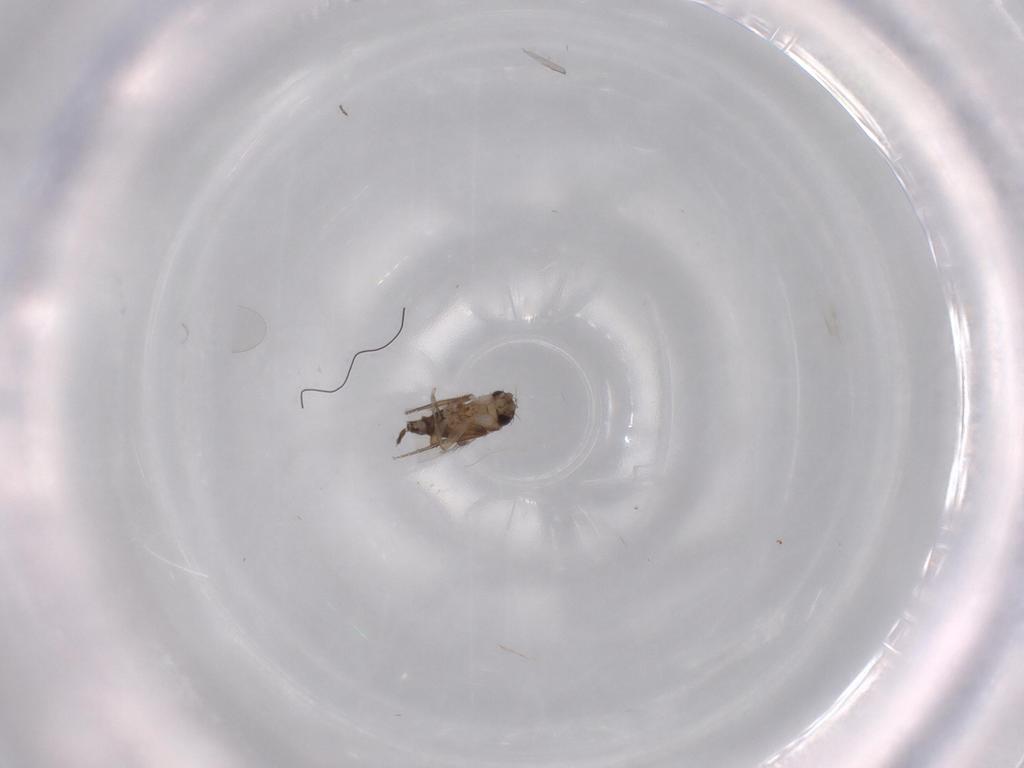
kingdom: Animalia
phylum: Arthropoda
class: Insecta
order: Diptera
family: Phoridae
